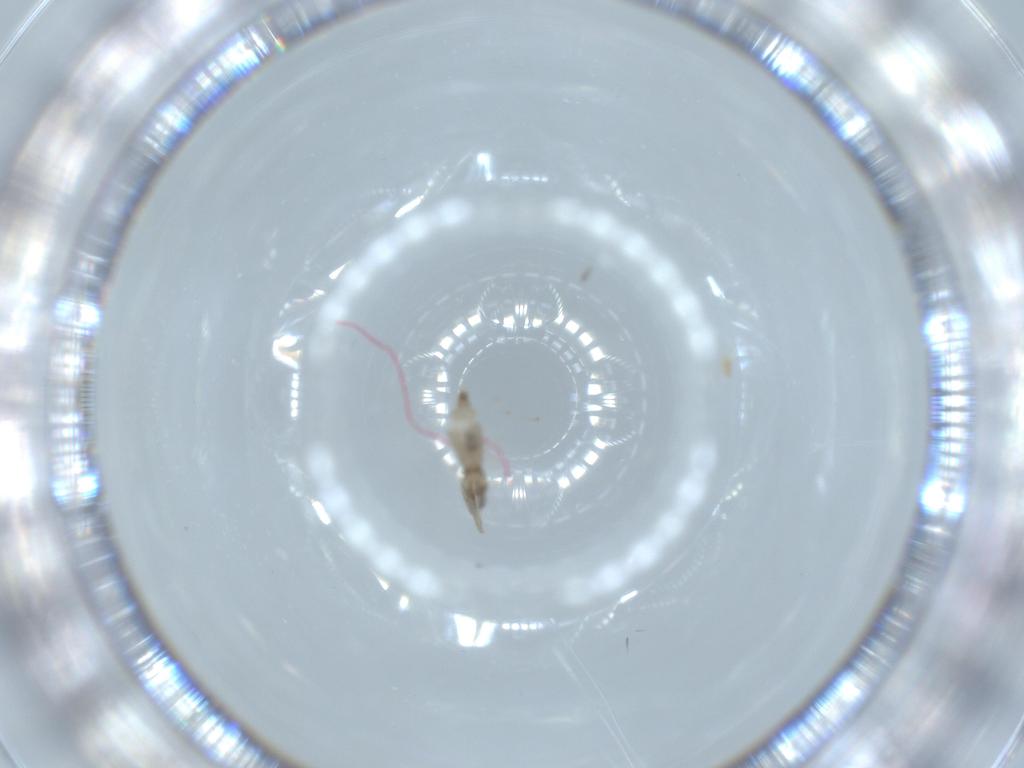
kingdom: Animalia
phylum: Arthropoda
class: Insecta
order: Diptera
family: Cecidomyiidae
